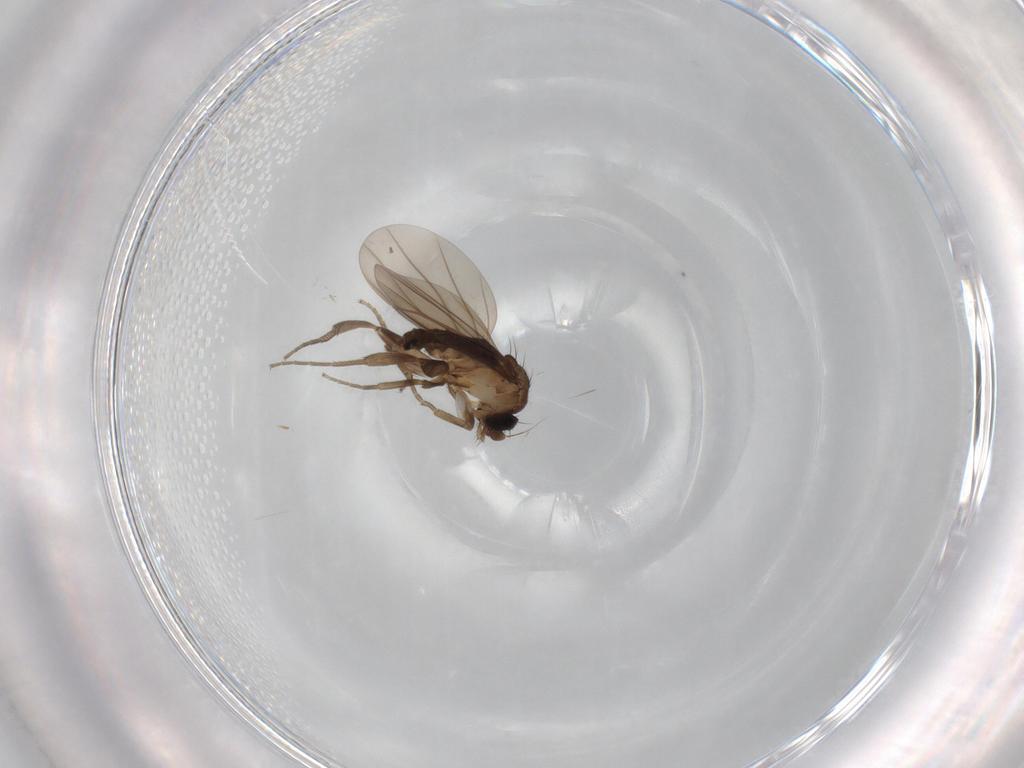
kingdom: Animalia
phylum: Arthropoda
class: Insecta
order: Diptera
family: Sciaridae
